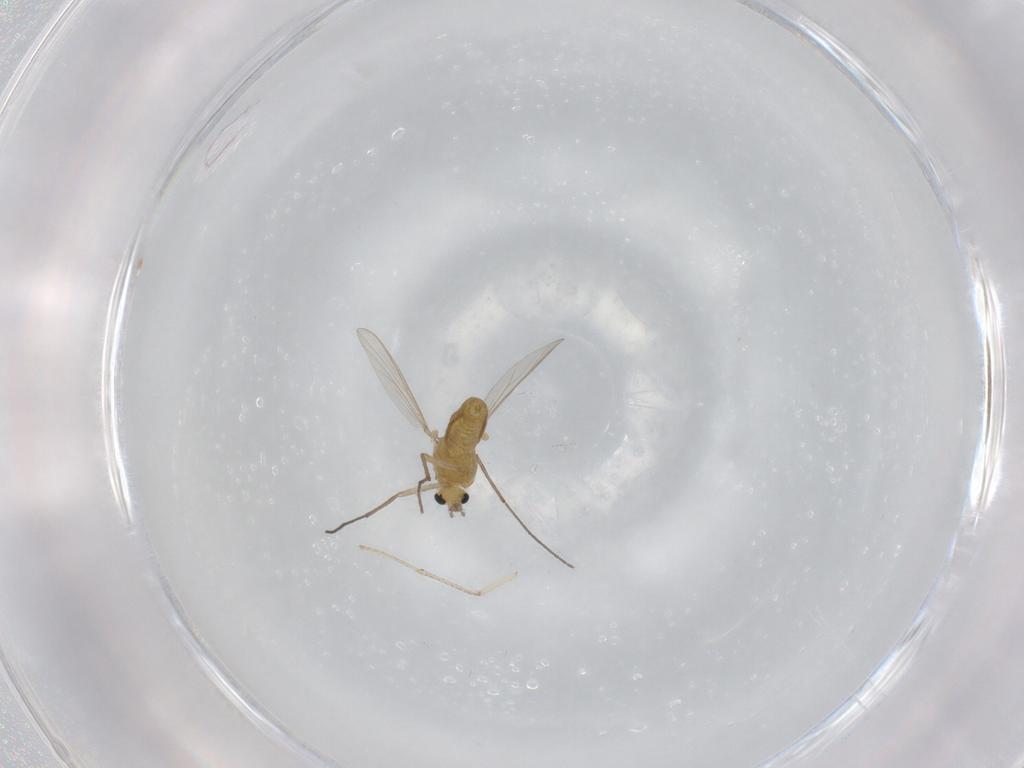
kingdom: Animalia
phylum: Arthropoda
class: Insecta
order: Diptera
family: Chironomidae
